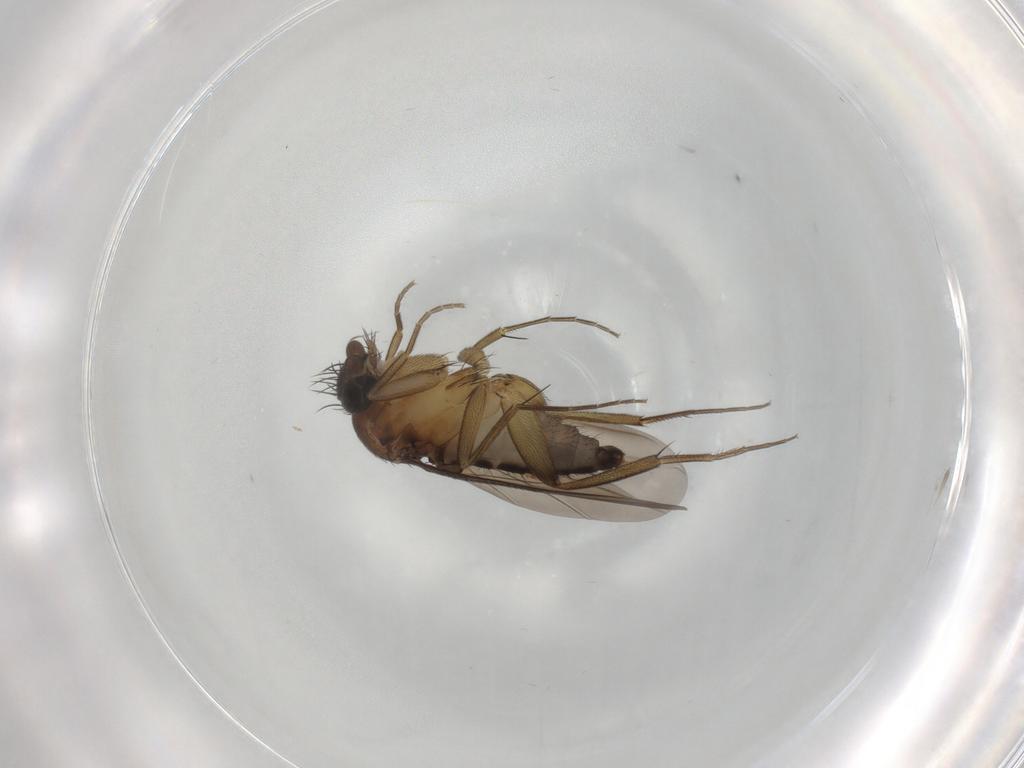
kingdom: Animalia
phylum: Arthropoda
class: Insecta
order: Diptera
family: Phoridae
